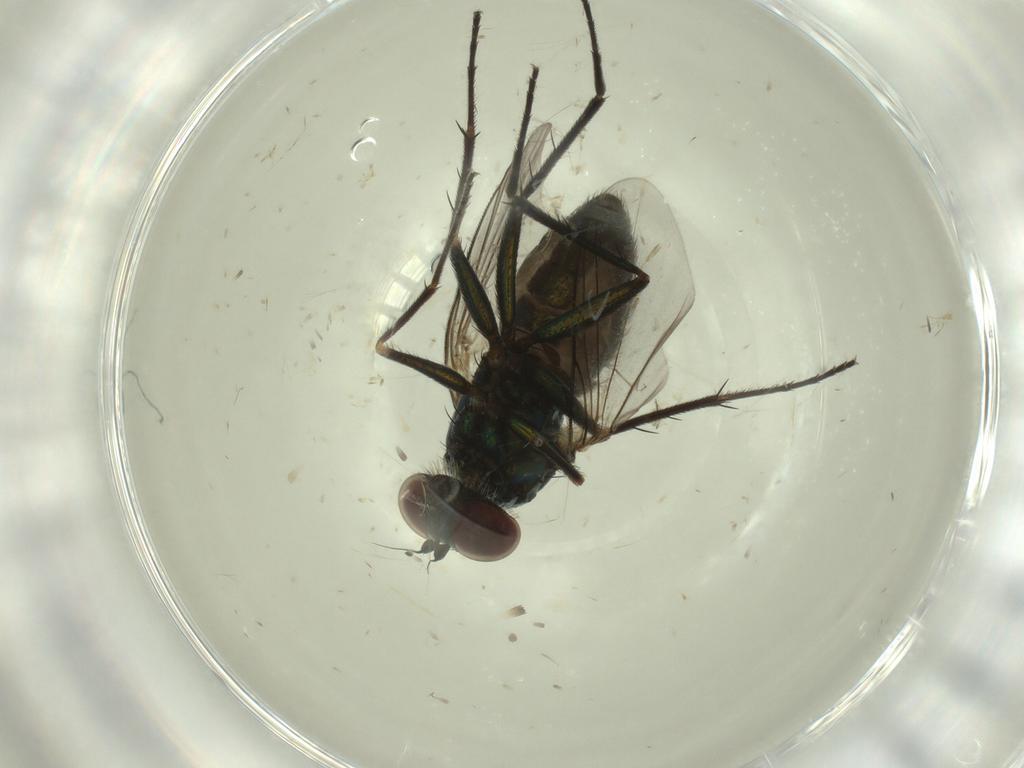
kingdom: Animalia
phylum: Arthropoda
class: Insecta
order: Diptera
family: Dolichopodidae
